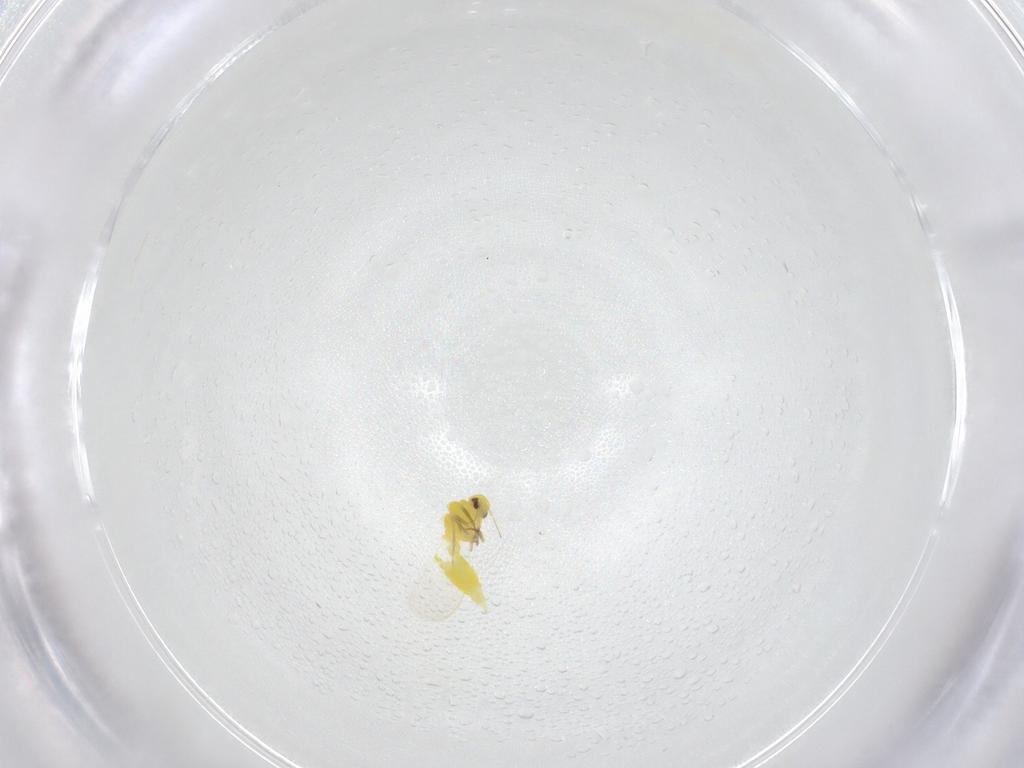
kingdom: Animalia
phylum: Arthropoda
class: Insecta
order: Hemiptera
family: Aleyrodidae
